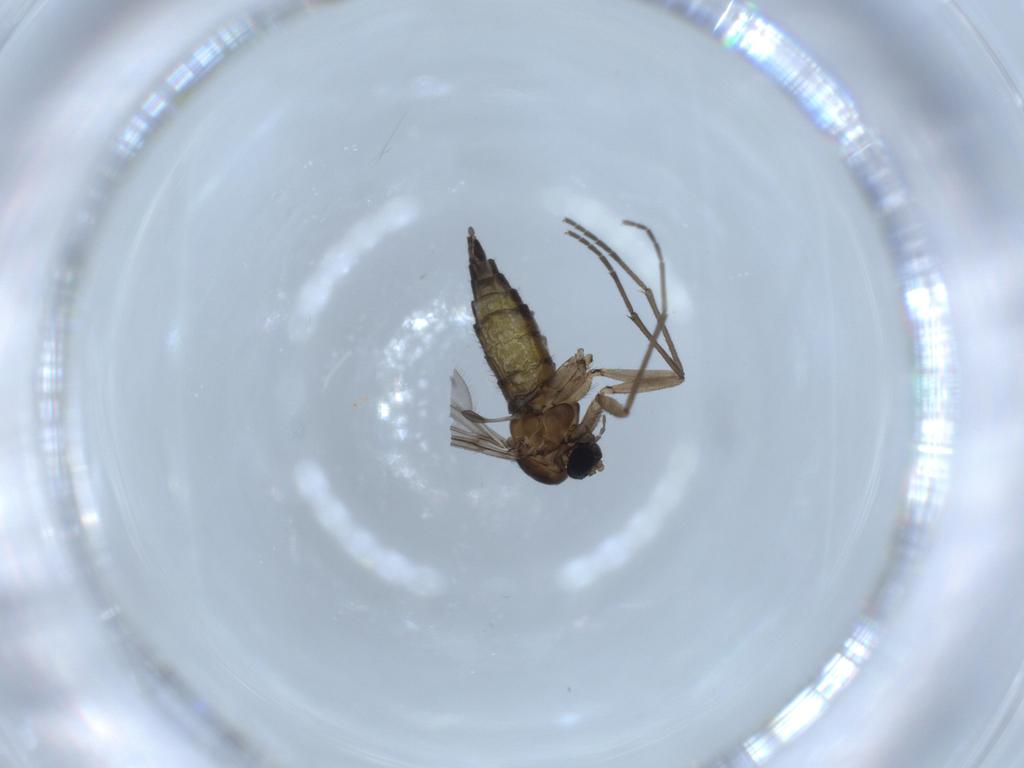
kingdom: Animalia
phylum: Arthropoda
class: Insecta
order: Diptera
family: Sciaridae
